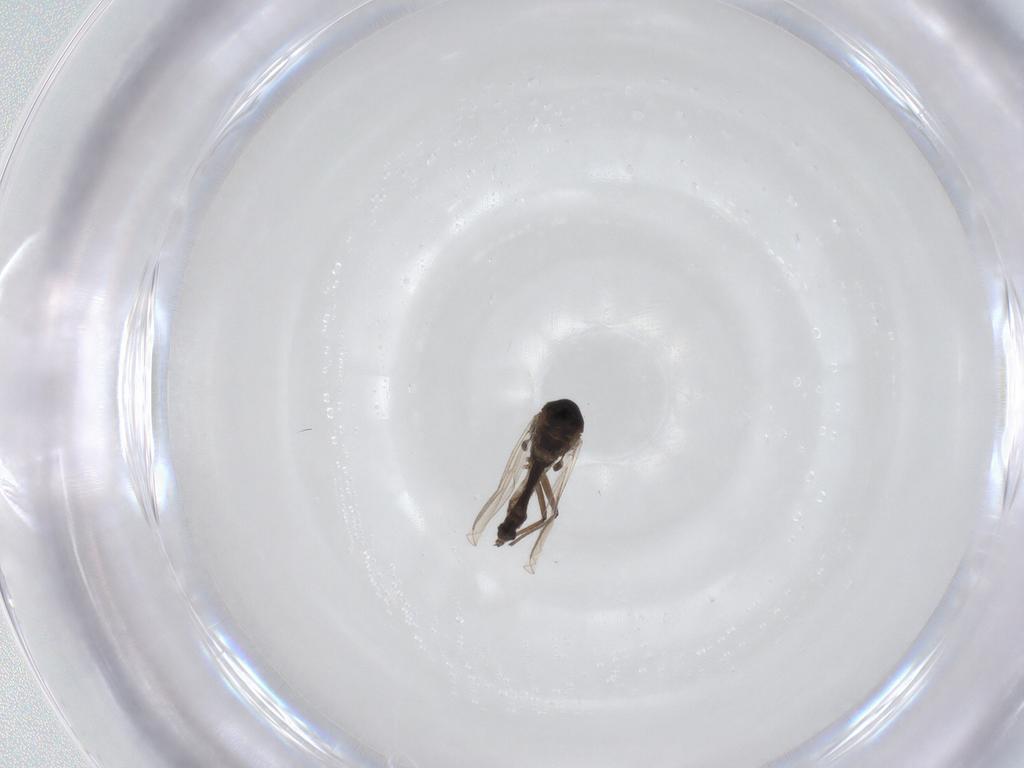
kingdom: Animalia
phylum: Arthropoda
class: Insecta
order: Diptera
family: Chironomidae
